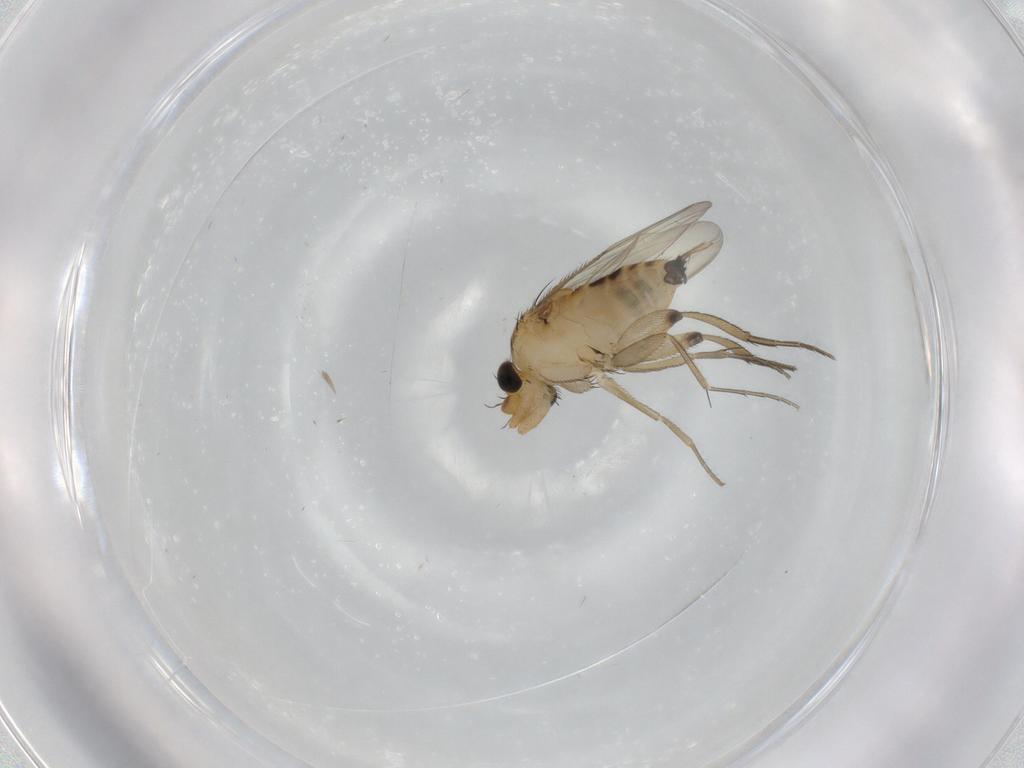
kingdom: Animalia
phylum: Arthropoda
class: Insecta
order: Diptera
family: Phoridae
